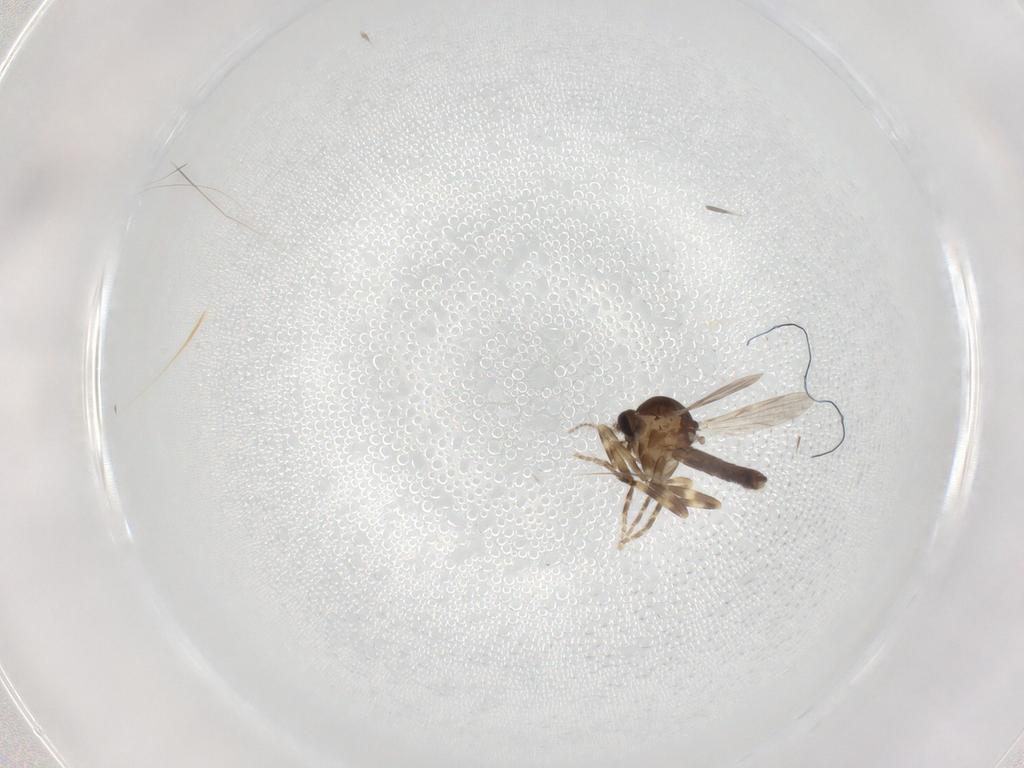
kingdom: Animalia
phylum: Arthropoda
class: Insecta
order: Diptera
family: Ceratopogonidae
